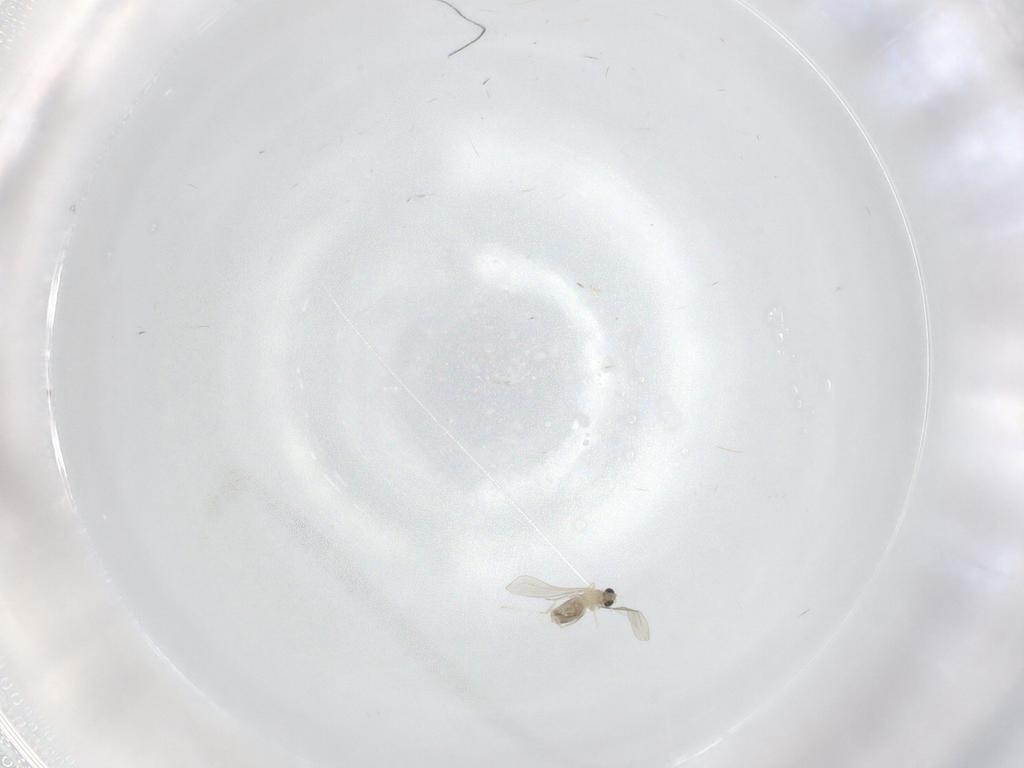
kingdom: Animalia
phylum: Arthropoda
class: Insecta
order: Diptera
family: Cecidomyiidae
